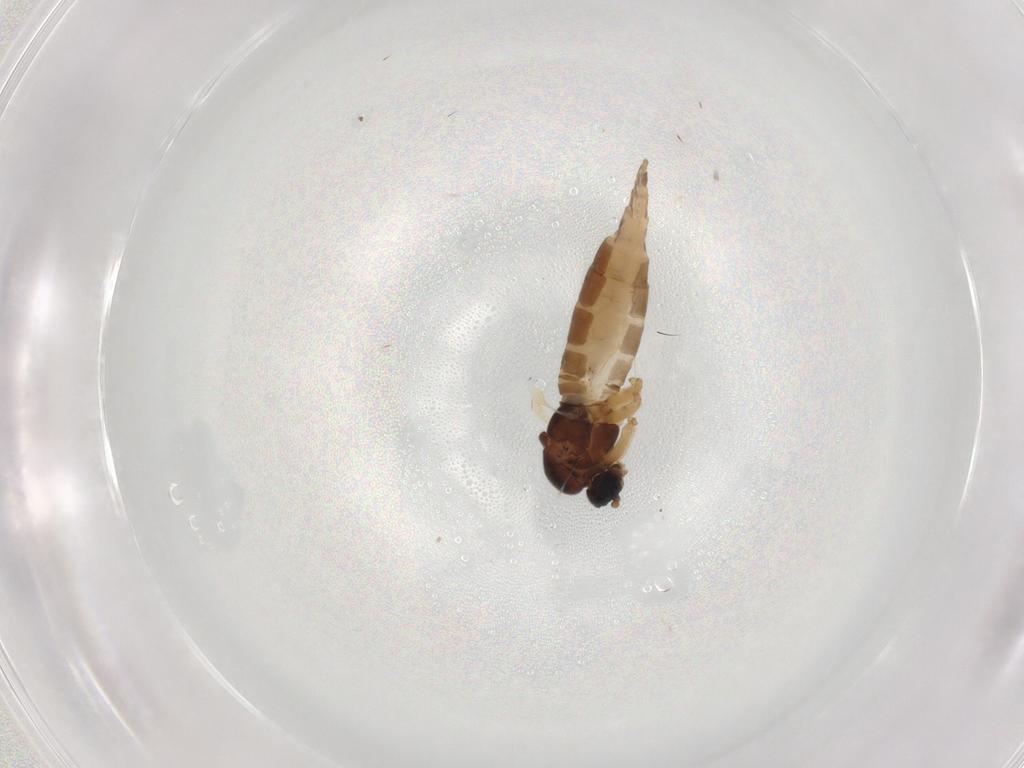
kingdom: Animalia
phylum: Arthropoda
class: Insecta
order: Diptera
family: Sciaridae
